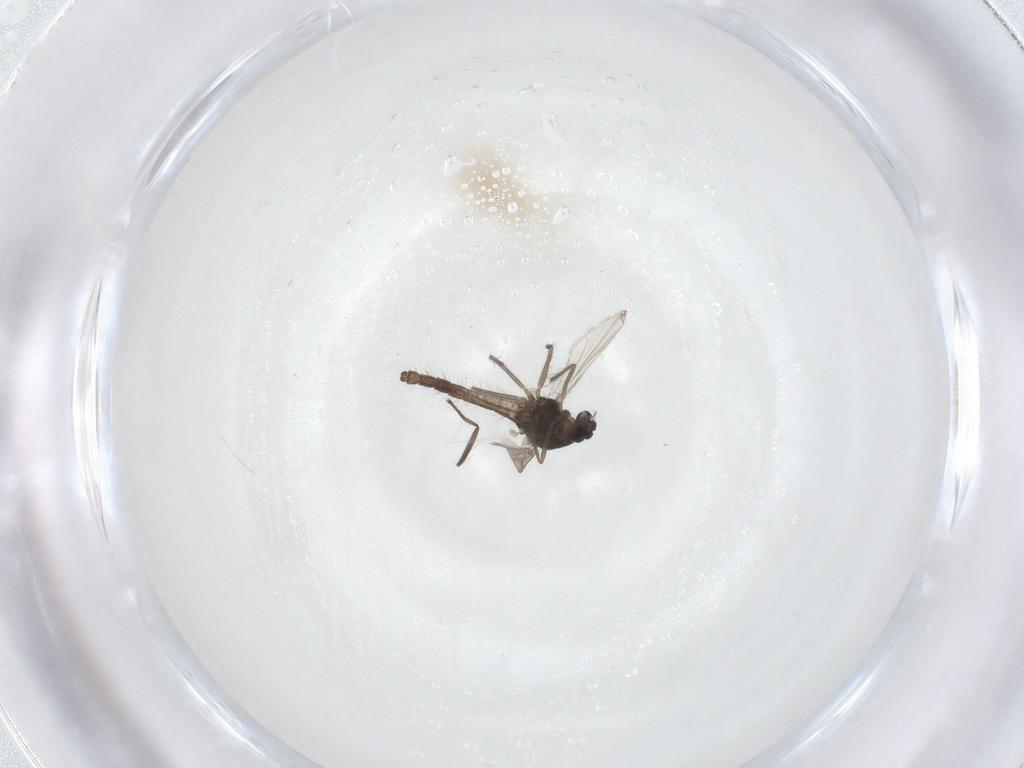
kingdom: Animalia
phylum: Arthropoda
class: Insecta
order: Diptera
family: Chironomidae
